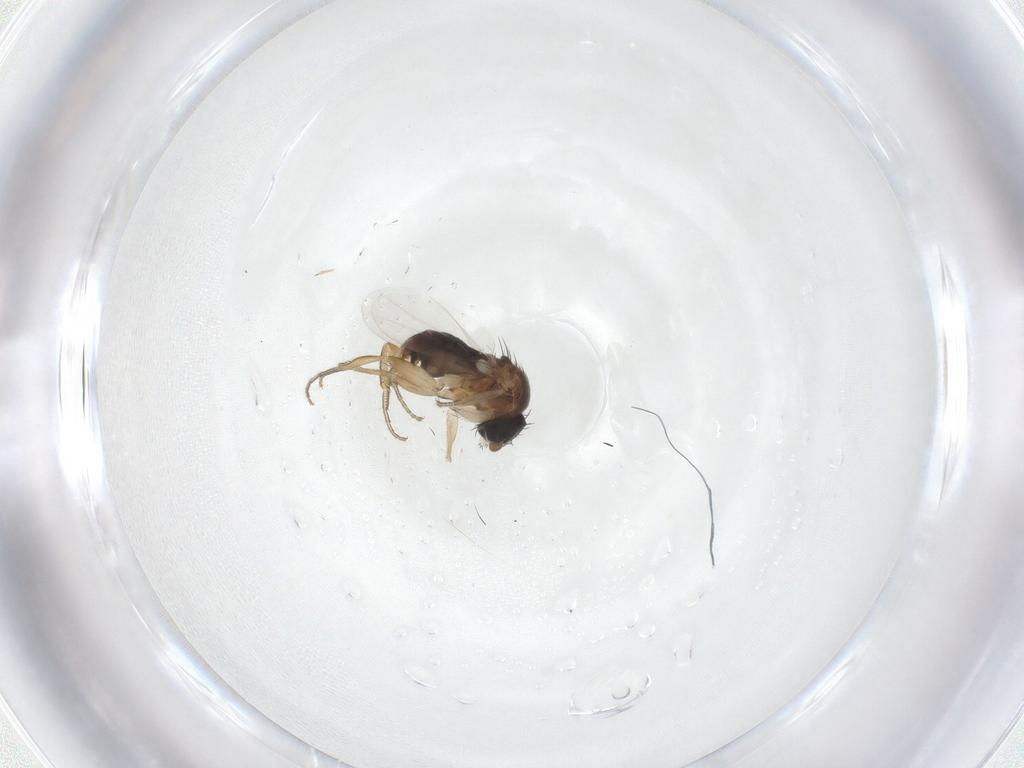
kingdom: Animalia
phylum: Arthropoda
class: Insecta
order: Diptera
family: Phoridae
